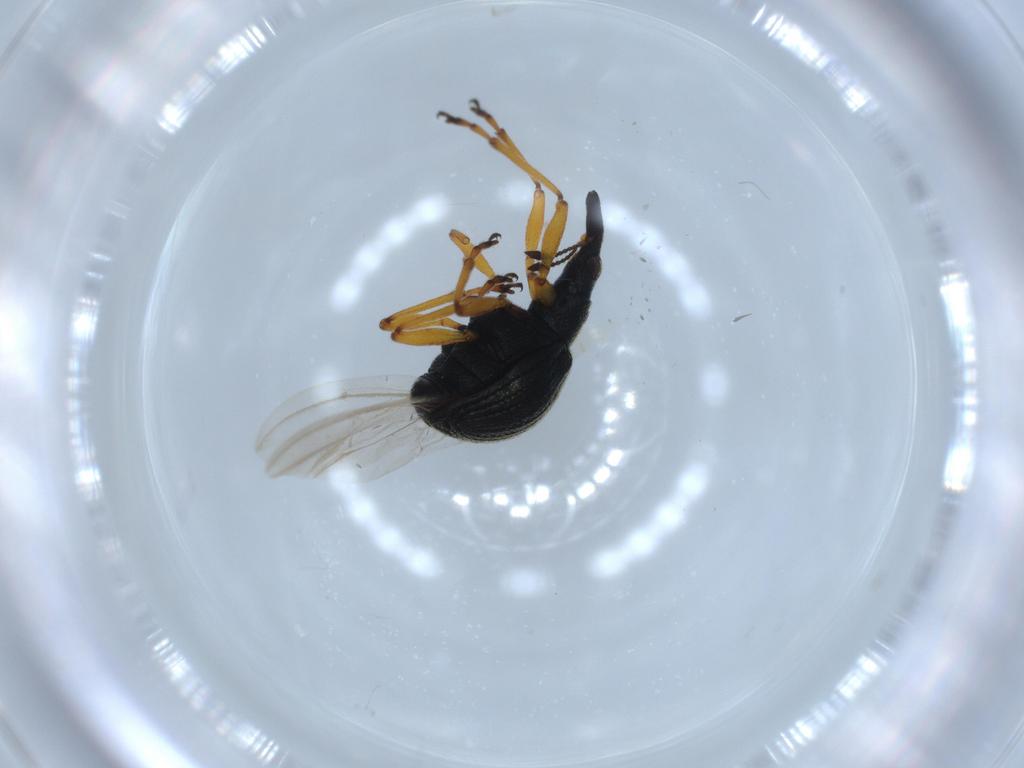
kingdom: Animalia
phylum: Arthropoda
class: Insecta
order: Coleoptera
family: Brentidae
